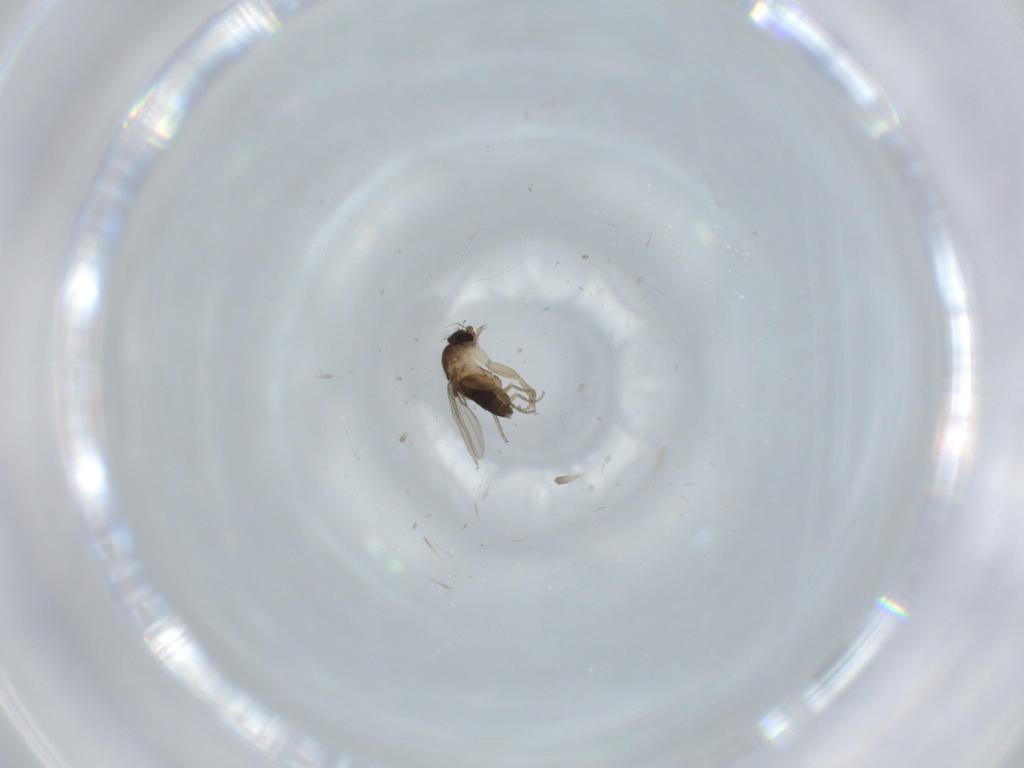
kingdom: Animalia
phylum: Arthropoda
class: Insecta
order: Diptera
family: Phoridae
